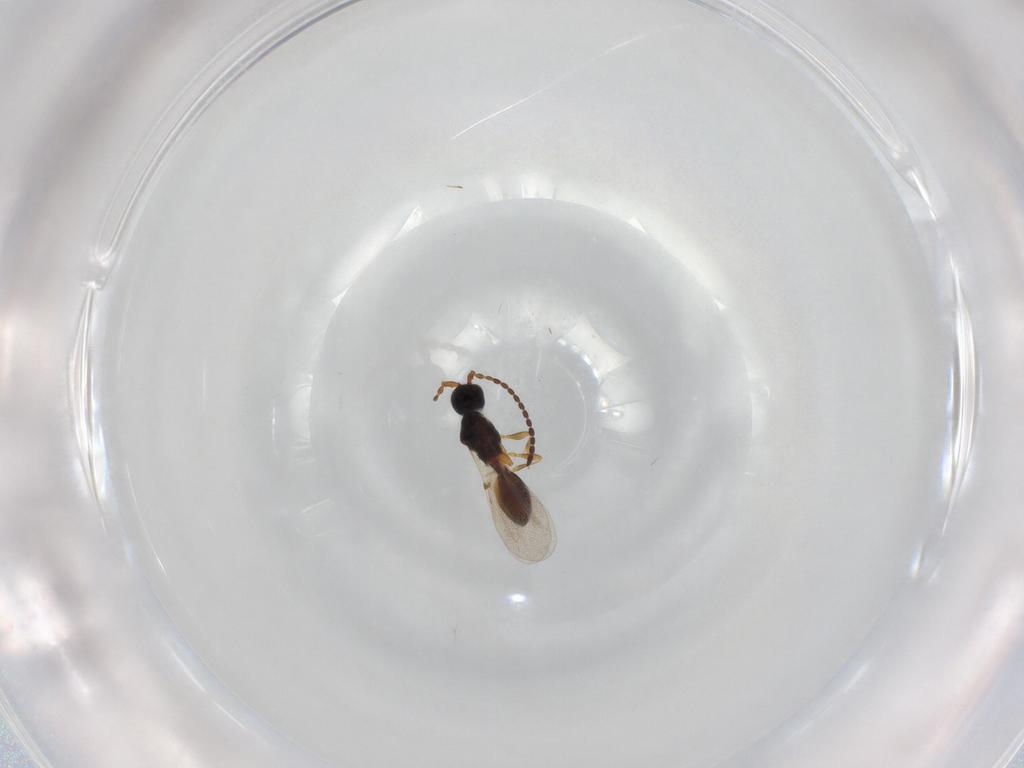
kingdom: Animalia
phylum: Arthropoda
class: Insecta
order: Hymenoptera
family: Diapriidae
